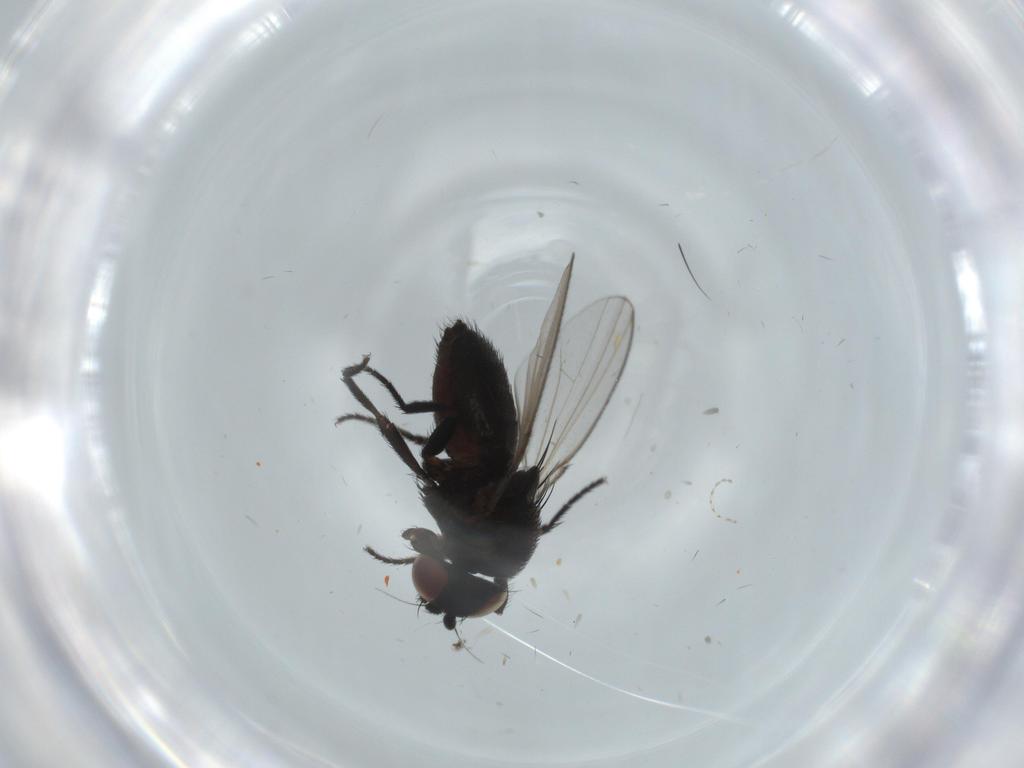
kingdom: Animalia
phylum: Arthropoda
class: Insecta
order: Diptera
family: Milichiidae
